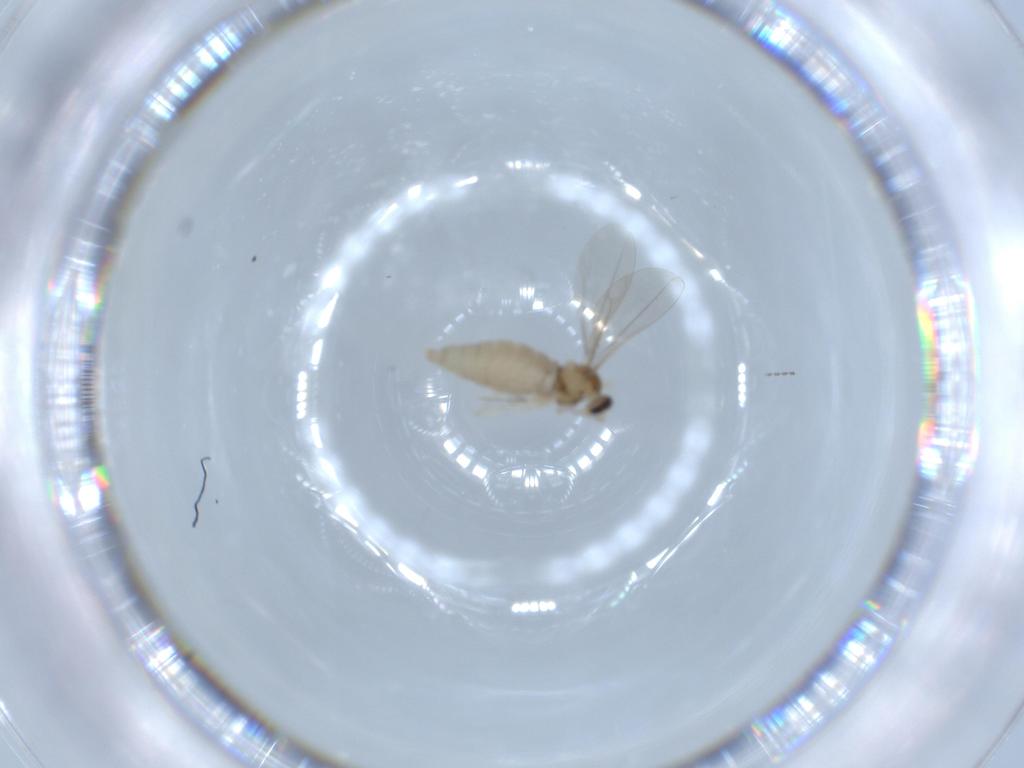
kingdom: Animalia
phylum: Arthropoda
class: Insecta
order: Diptera
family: Cecidomyiidae
